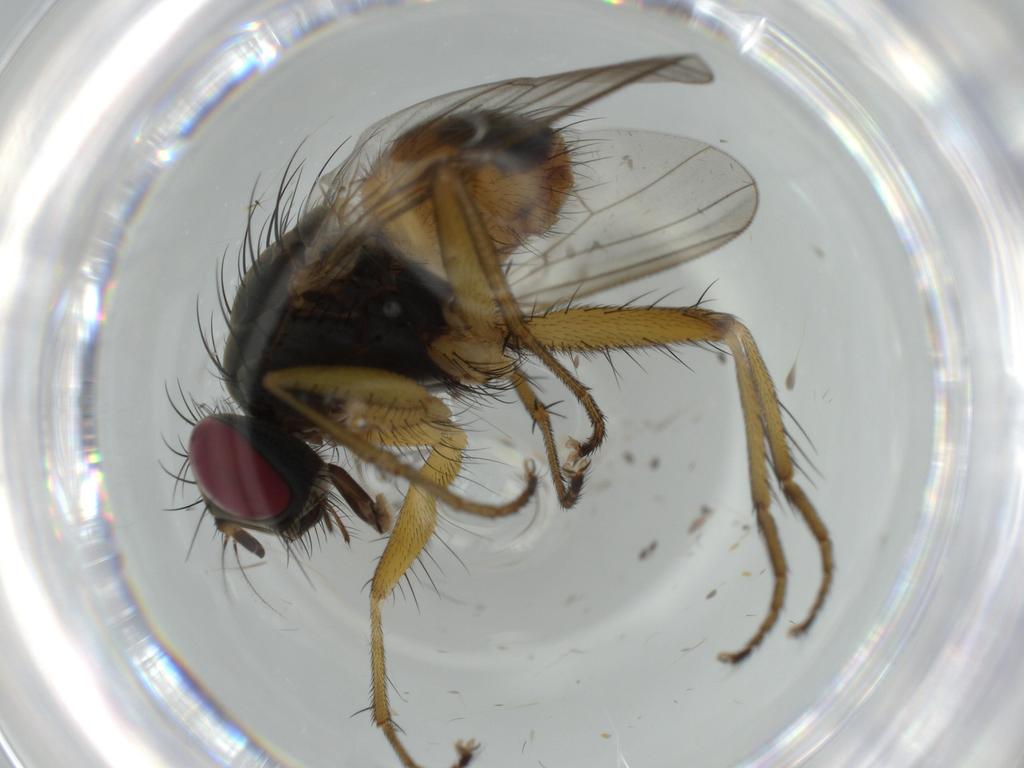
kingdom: Animalia
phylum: Arthropoda
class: Insecta
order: Diptera
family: Muscidae
